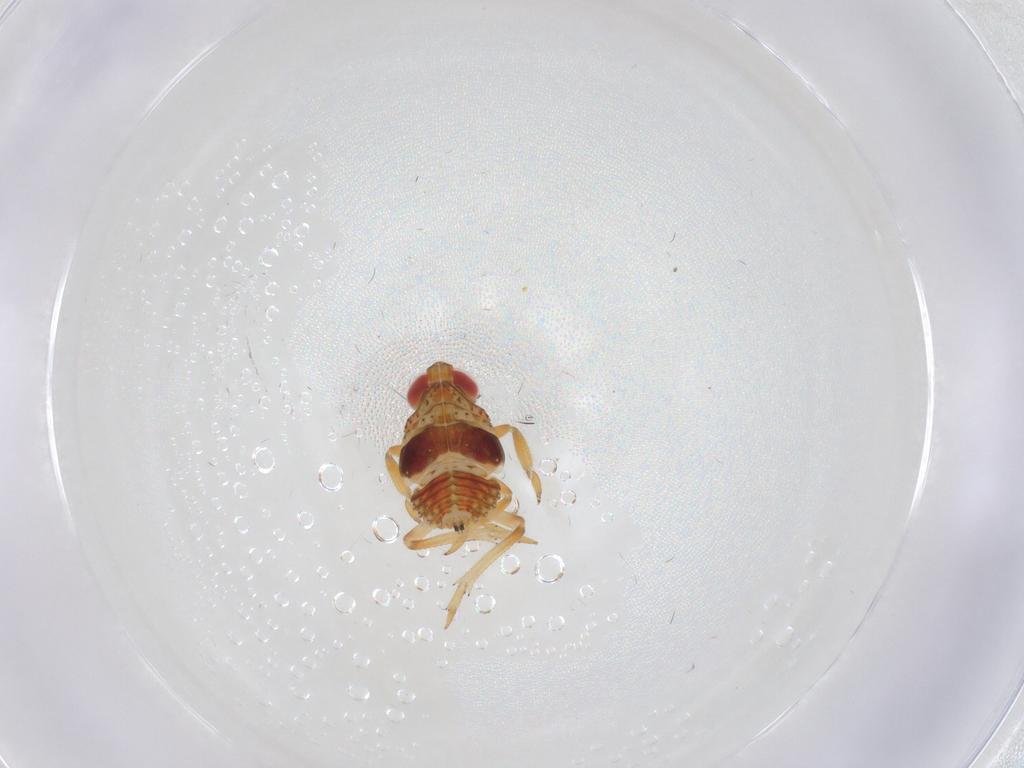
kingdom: Animalia
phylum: Arthropoda
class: Insecta
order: Hemiptera
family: Issidae
